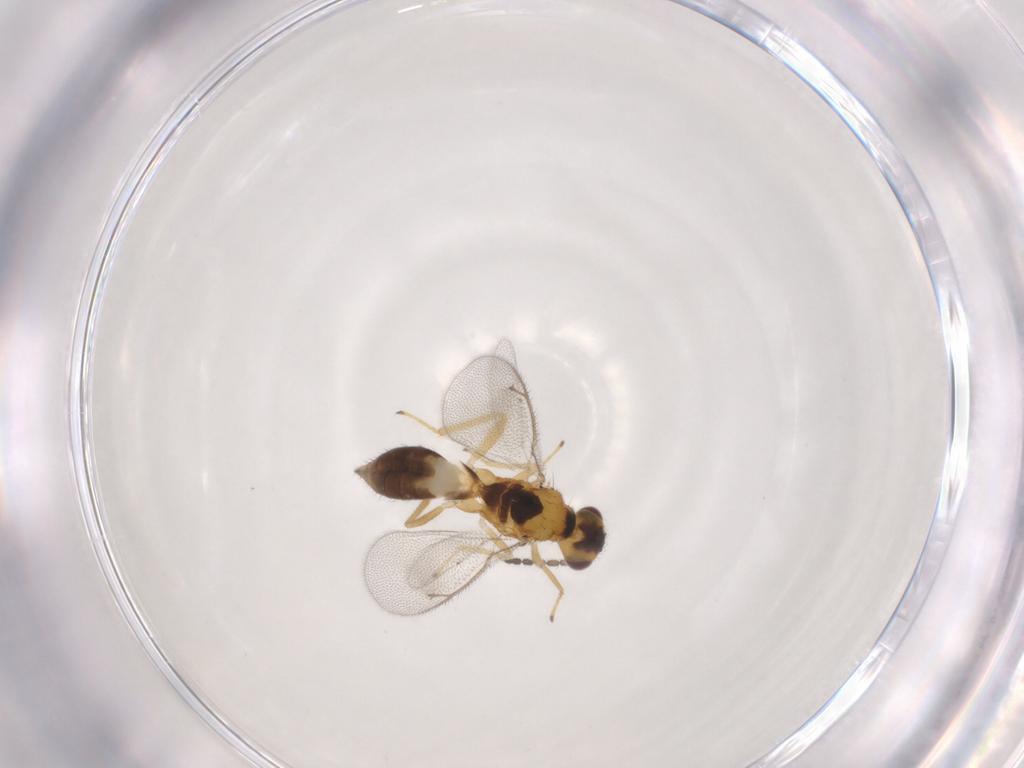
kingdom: Animalia
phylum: Arthropoda
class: Insecta
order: Hymenoptera
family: Eulophidae
